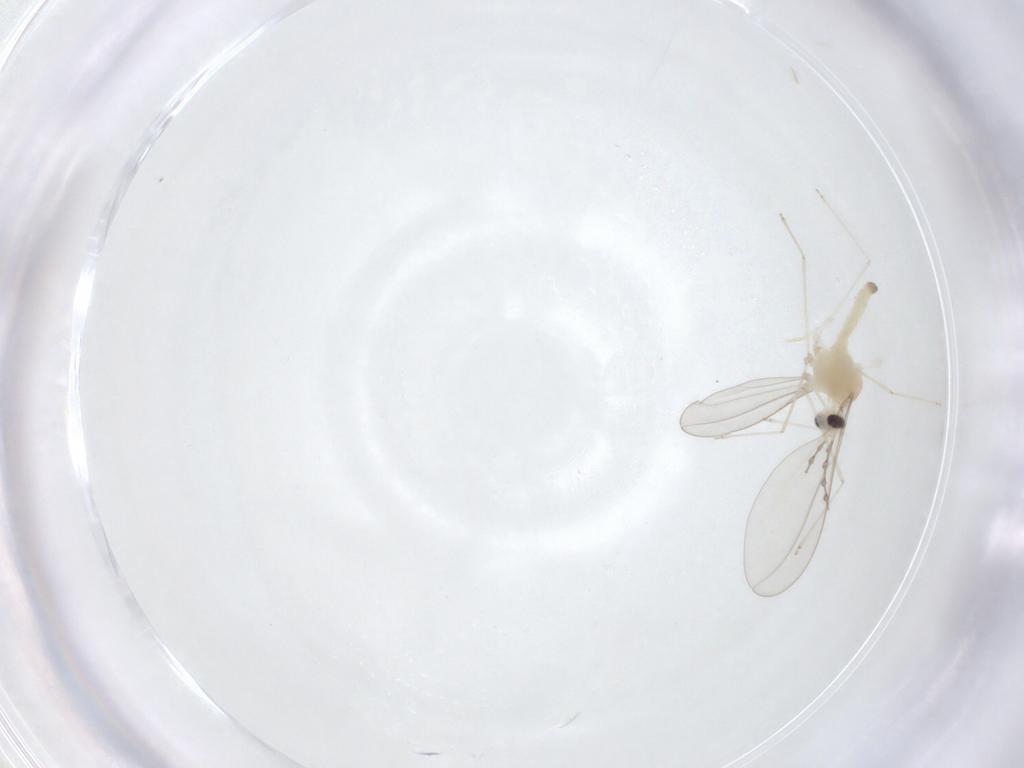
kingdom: Animalia
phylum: Arthropoda
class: Insecta
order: Diptera
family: Cecidomyiidae
